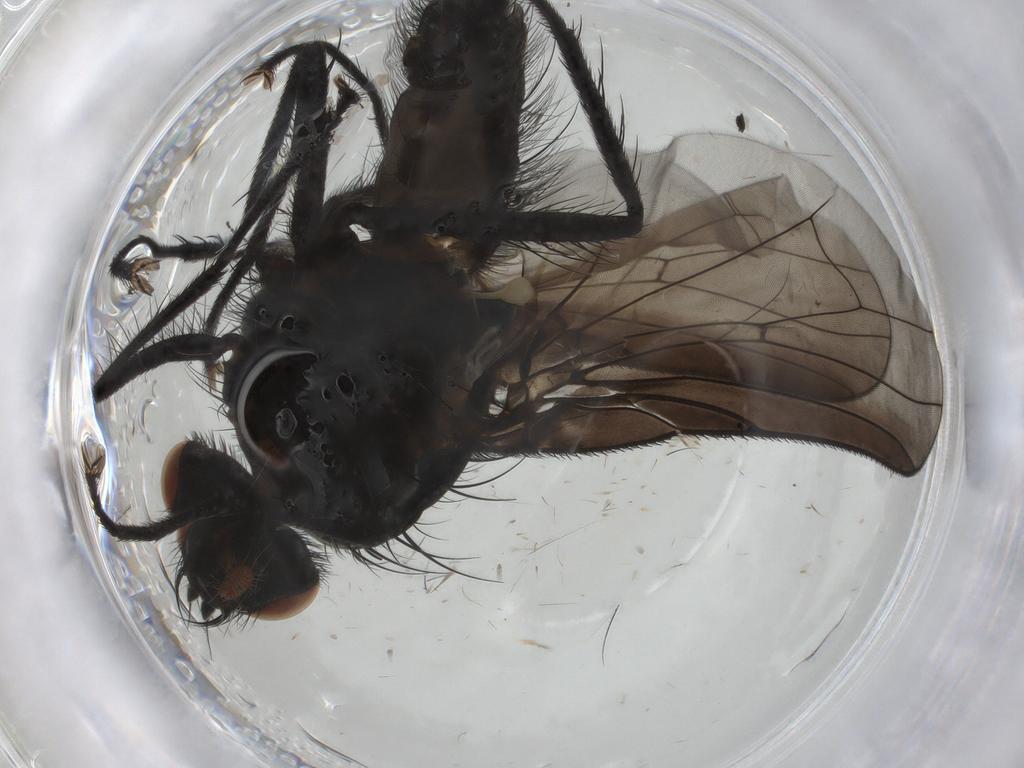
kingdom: Animalia
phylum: Arthropoda
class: Insecta
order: Diptera
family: Anthomyiidae
